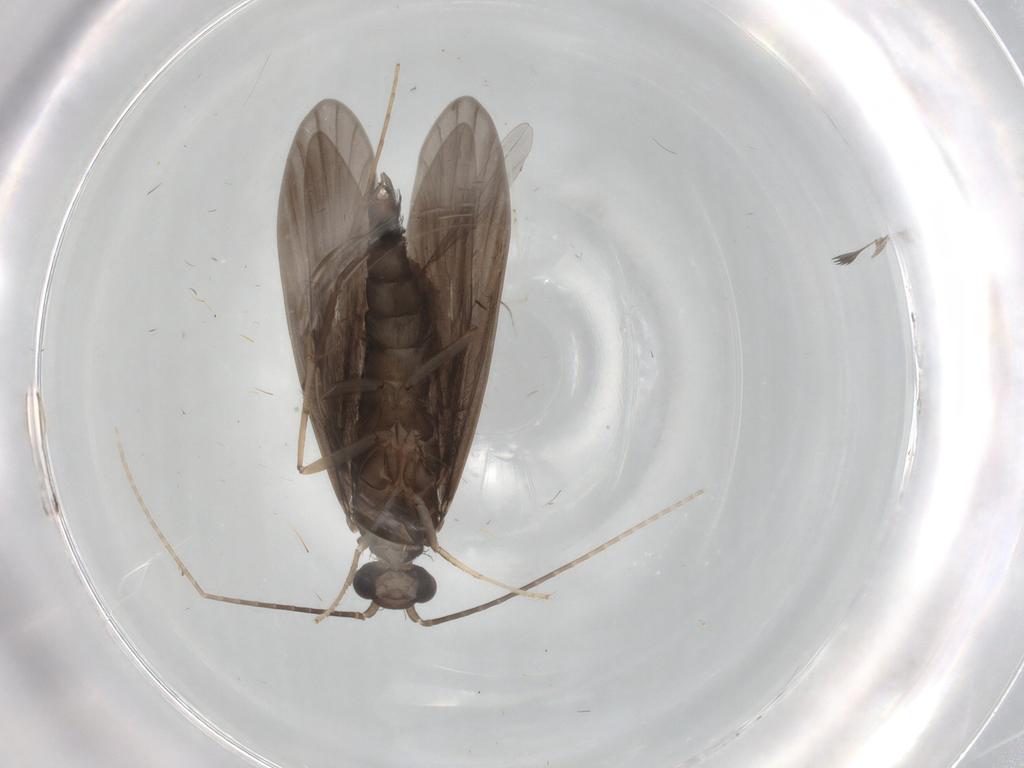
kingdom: Animalia
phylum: Arthropoda
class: Insecta
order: Trichoptera
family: Xiphocentronidae
